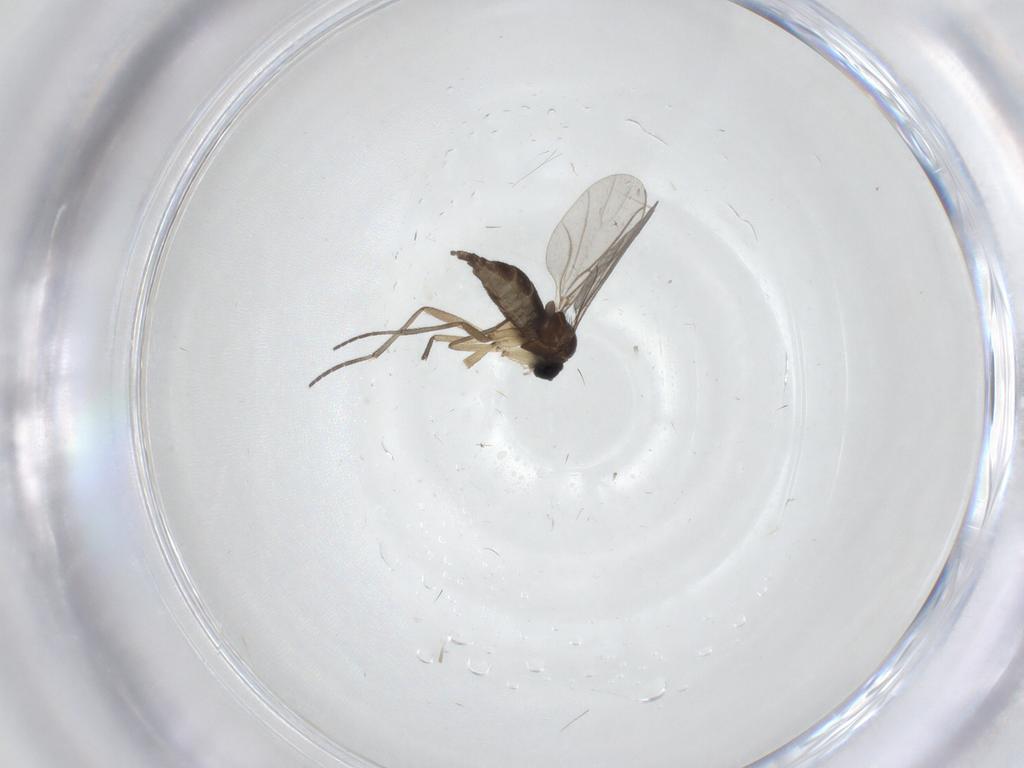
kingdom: Animalia
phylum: Arthropoda
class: Insecta
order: Diptera
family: Sciaridae
